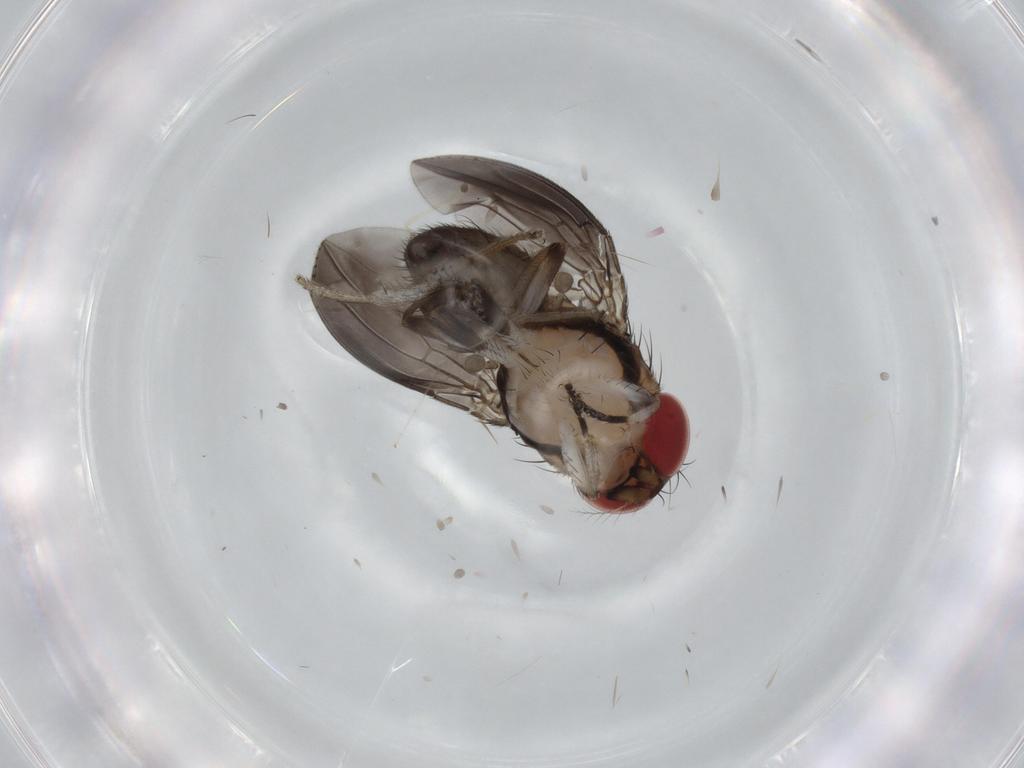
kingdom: Animalia
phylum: Arthropoda
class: Insecta
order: Diptera
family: Drosophilidae
